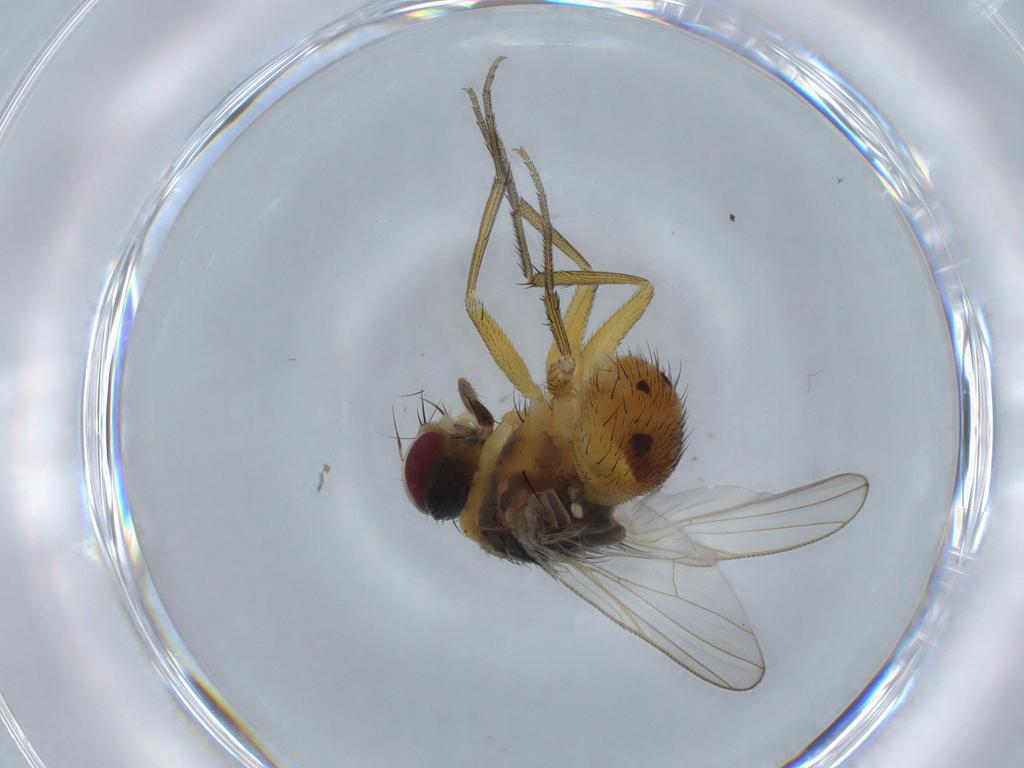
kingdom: Animalia
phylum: Arthropoda
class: Insecta
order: Diptera
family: Muscidae
